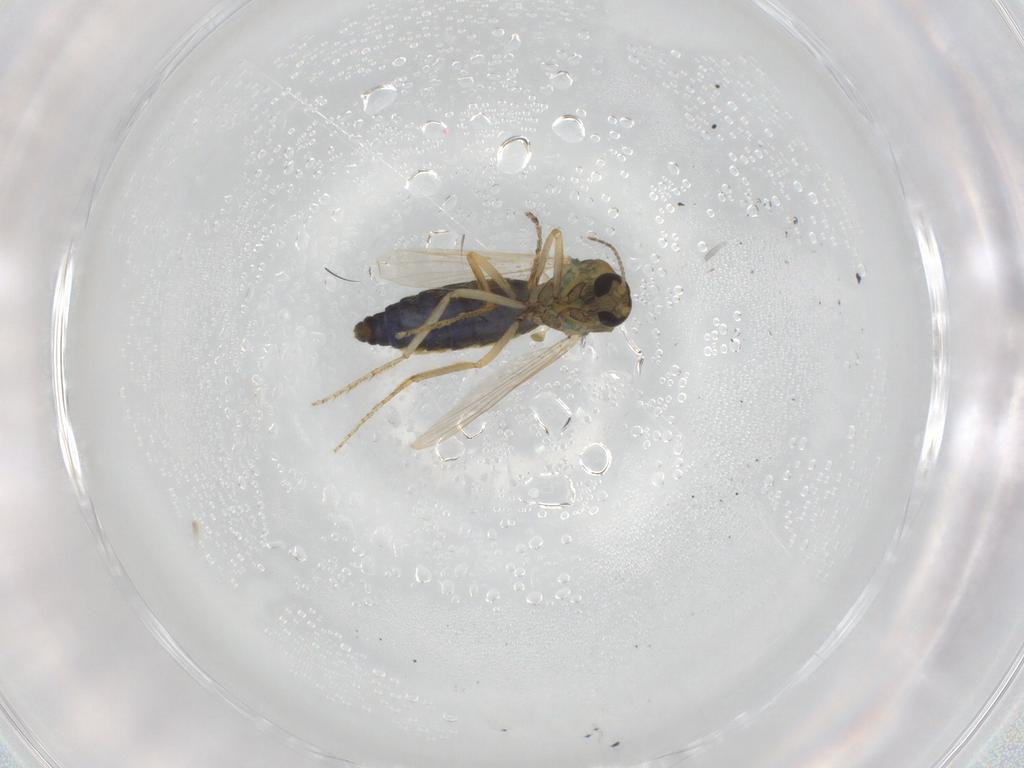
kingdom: Animalia
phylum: Arthropoda
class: Insecta
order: Diptera
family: Ceratopogonidae
